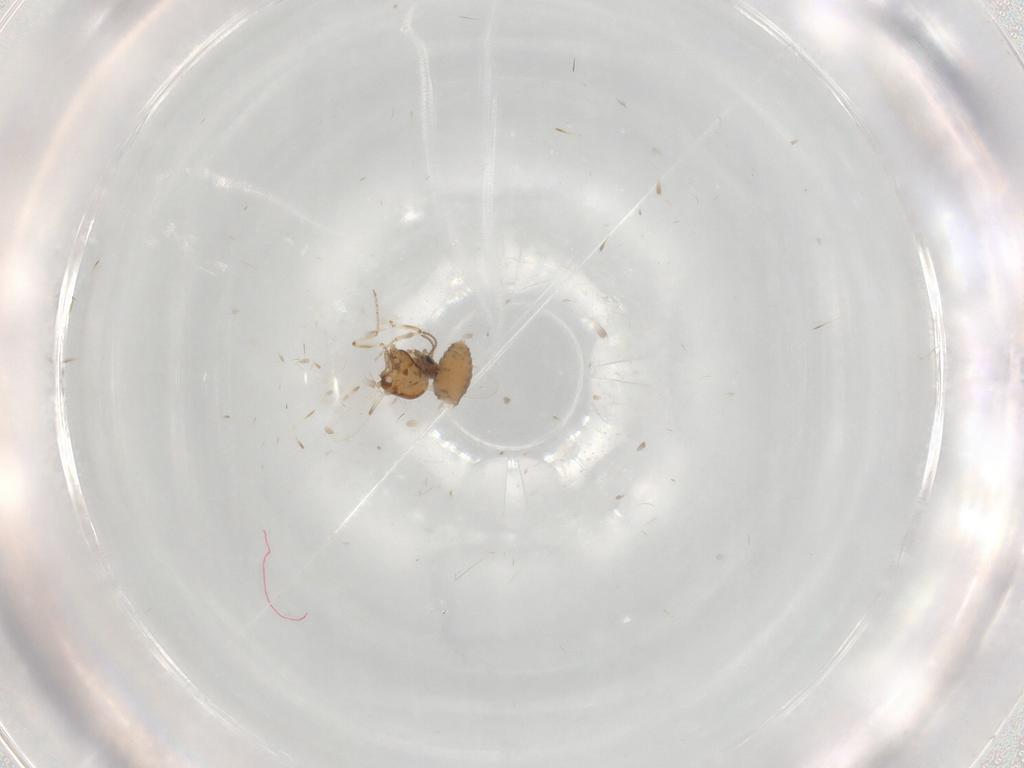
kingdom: Animalia
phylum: Arthropoda
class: Insecta
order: Diptera
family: Ceratopogonidae
